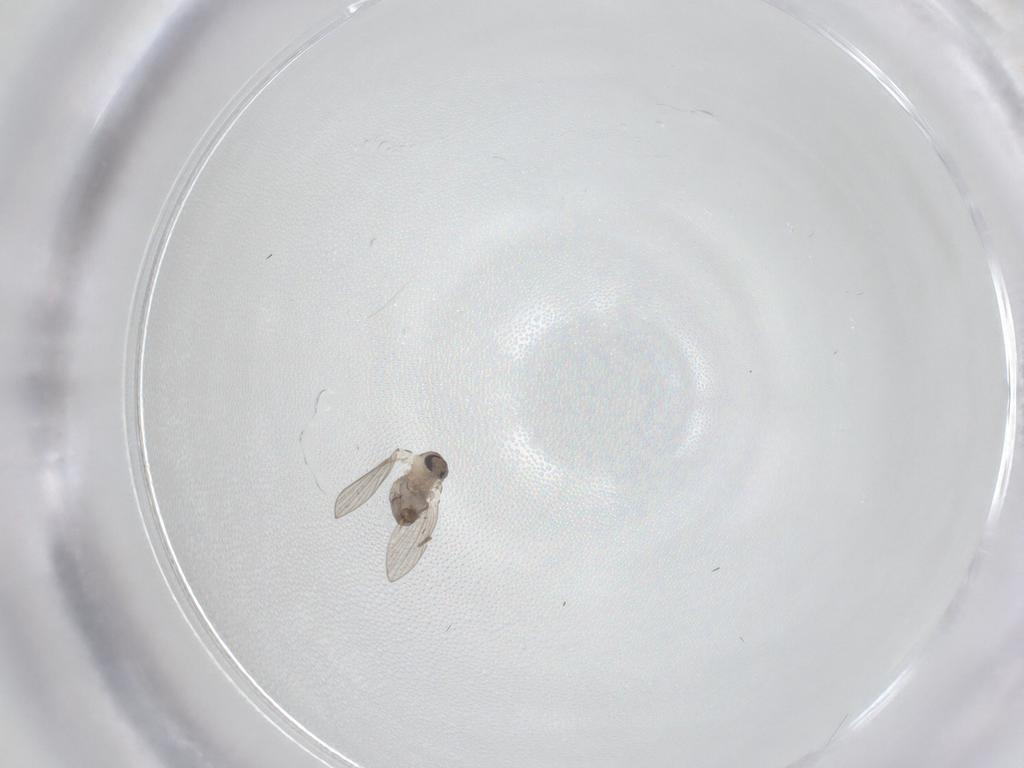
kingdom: Animalia
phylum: Arthropoda
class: Insecta
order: Diptera
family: Psychodidae
